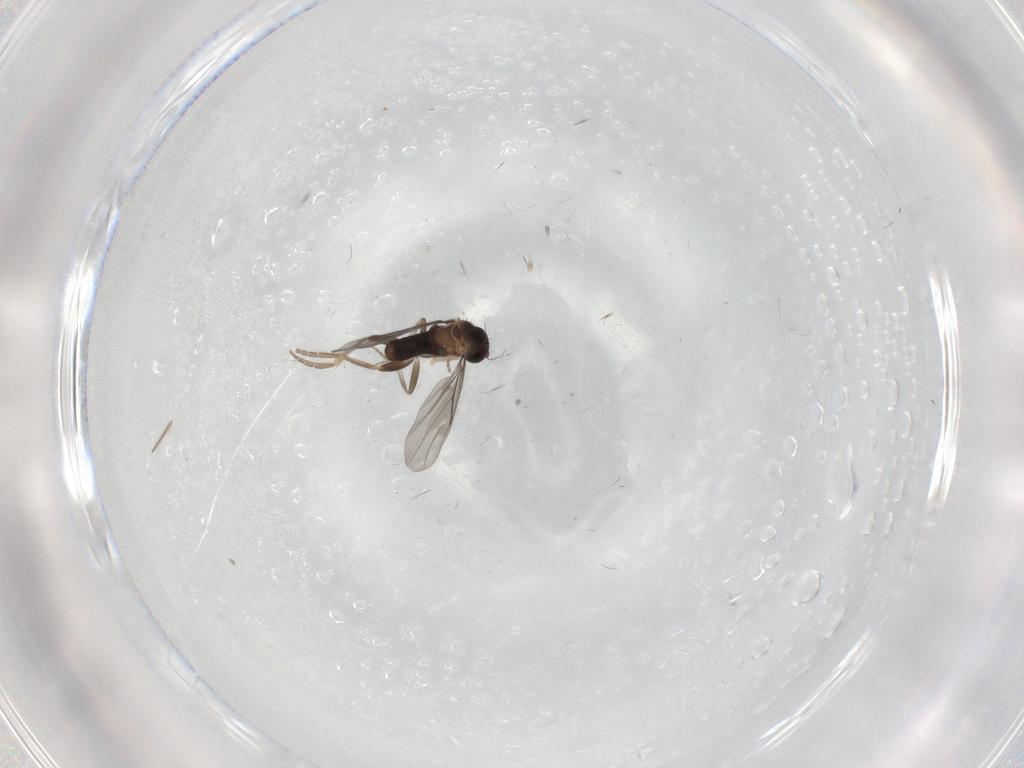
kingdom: Animalia
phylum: Arthropoda
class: Insecta
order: Diptera
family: Cecidomyiidae
